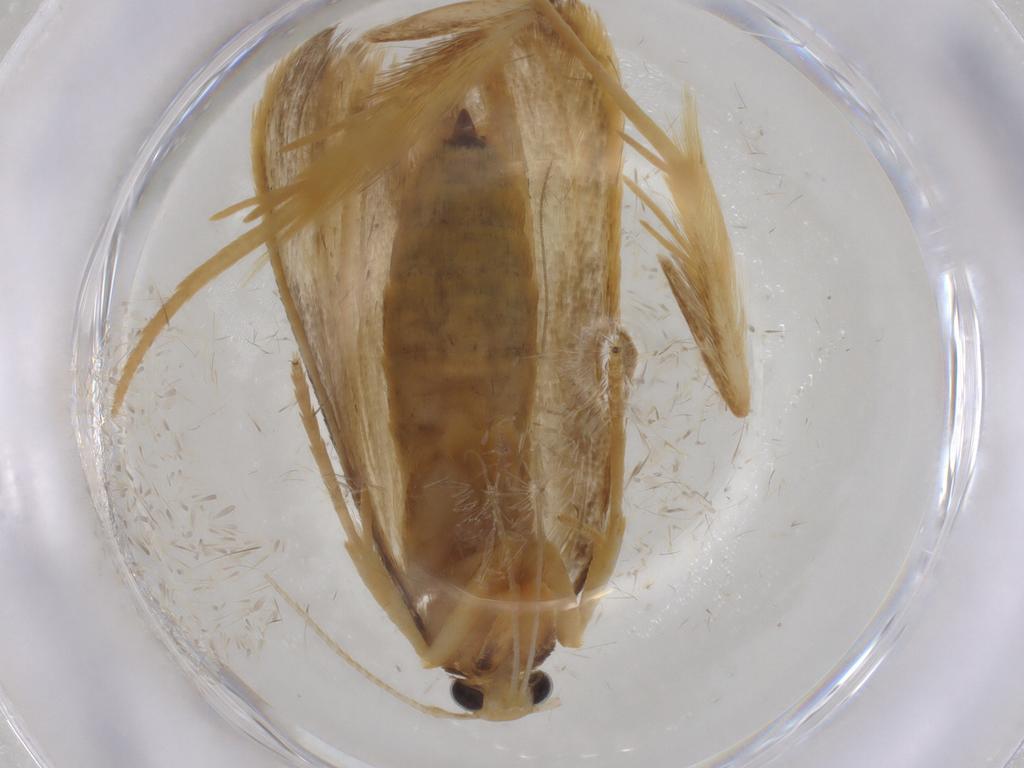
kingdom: Animalia
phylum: Arthropoda
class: Insecta
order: Lepidoptera
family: Lecithoceridae
